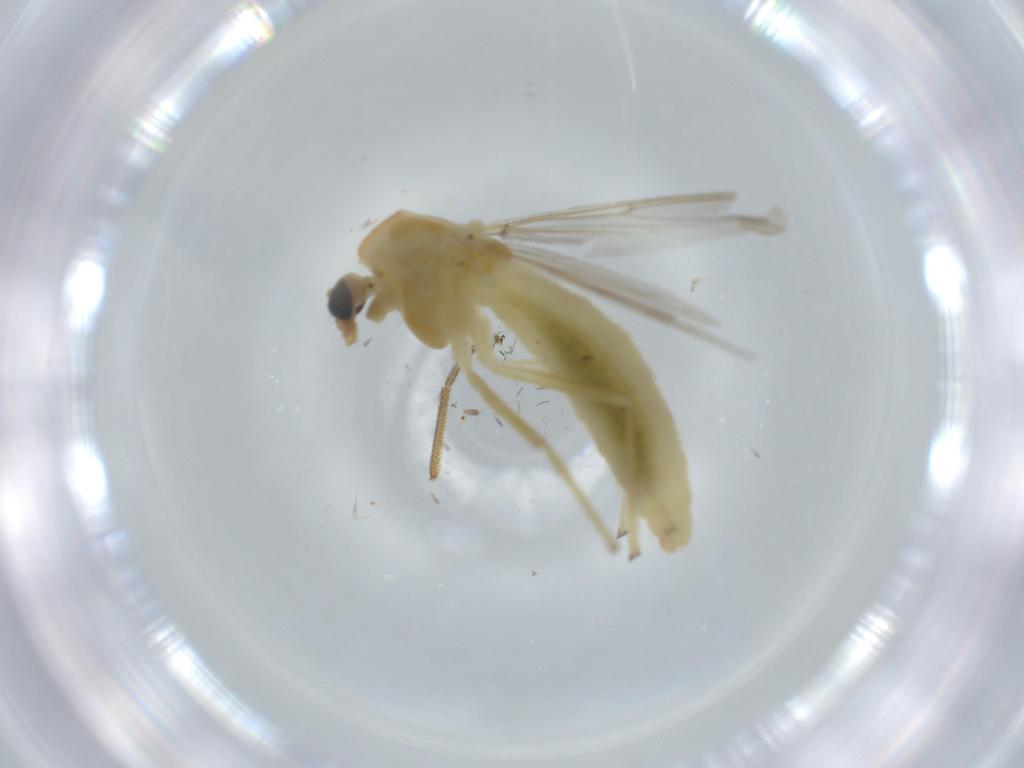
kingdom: Animalia
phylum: Arthropoda
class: Insecta
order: Diptera
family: Chironomidae
